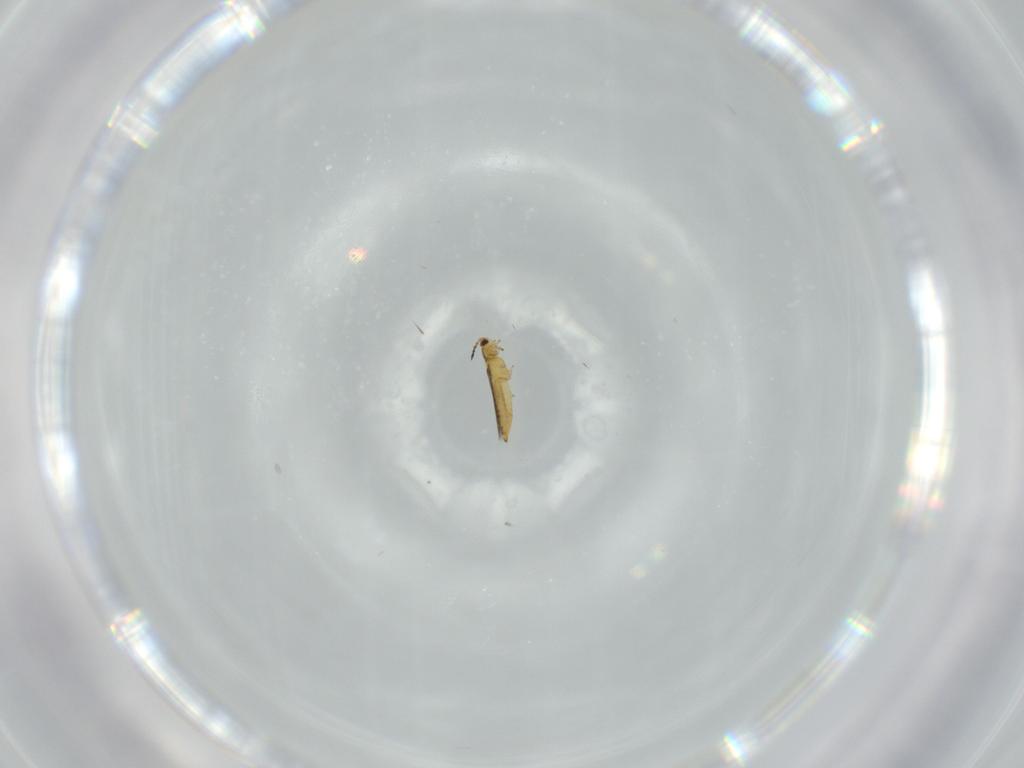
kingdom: Animalia
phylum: Arthropoda
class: Insecta
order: Thysanoptera
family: Thripidae
